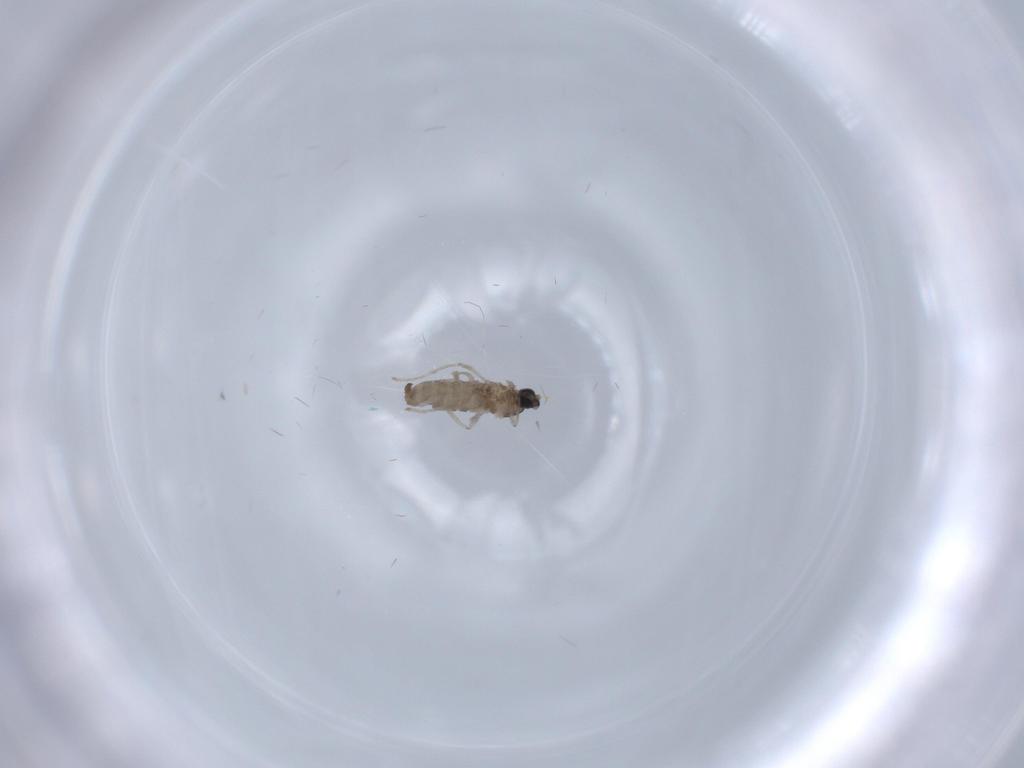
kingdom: Animalia
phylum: Arthropoda
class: Insecta
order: Diptera
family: Cecidomyiidae
